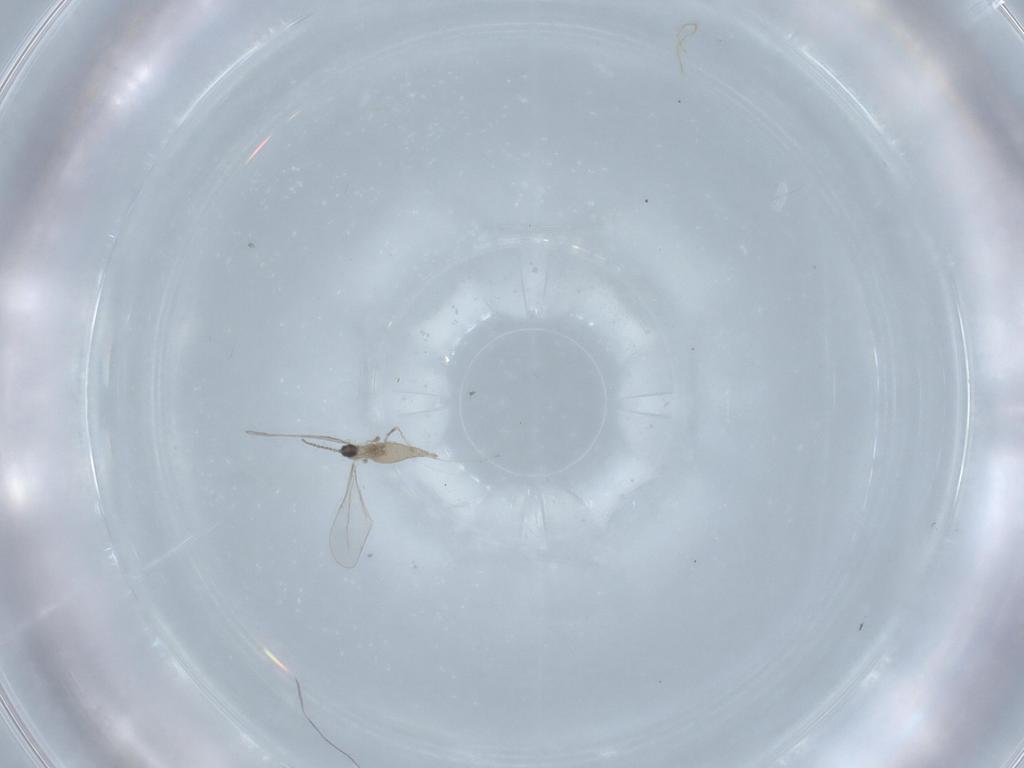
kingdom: Animalia
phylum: Arthropoda
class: Insecta
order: Diptera
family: Cecidomyiidae
